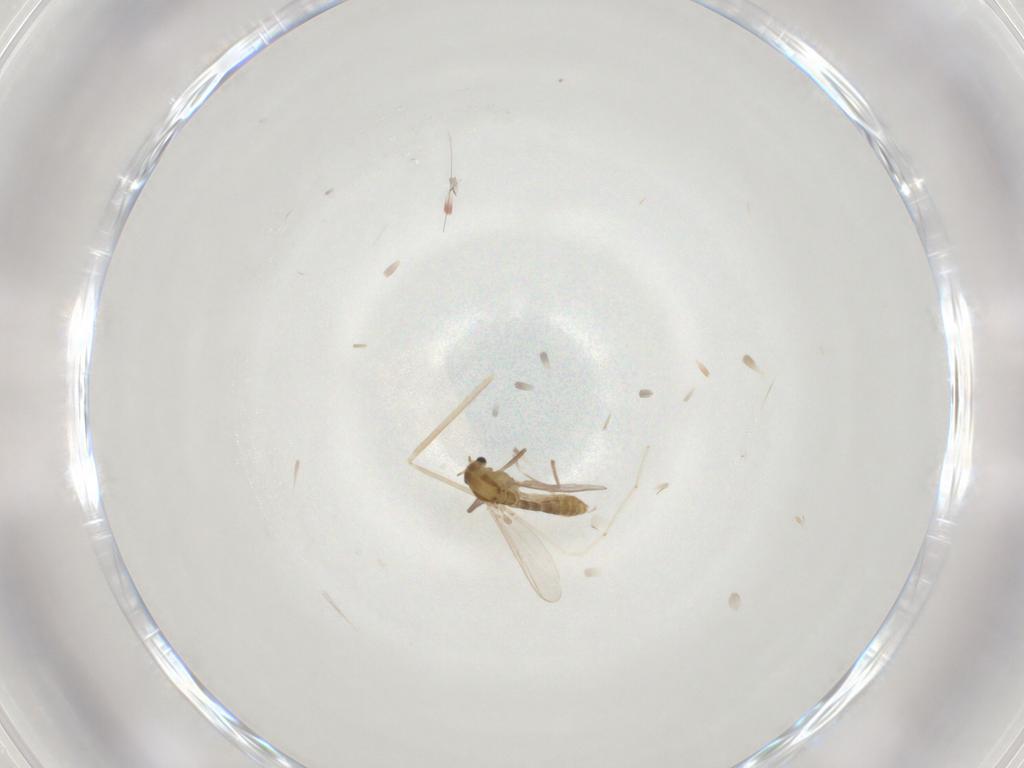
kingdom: Animalia
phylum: Arthropoda
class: Insecta
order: Diptera
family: Chironomidae
